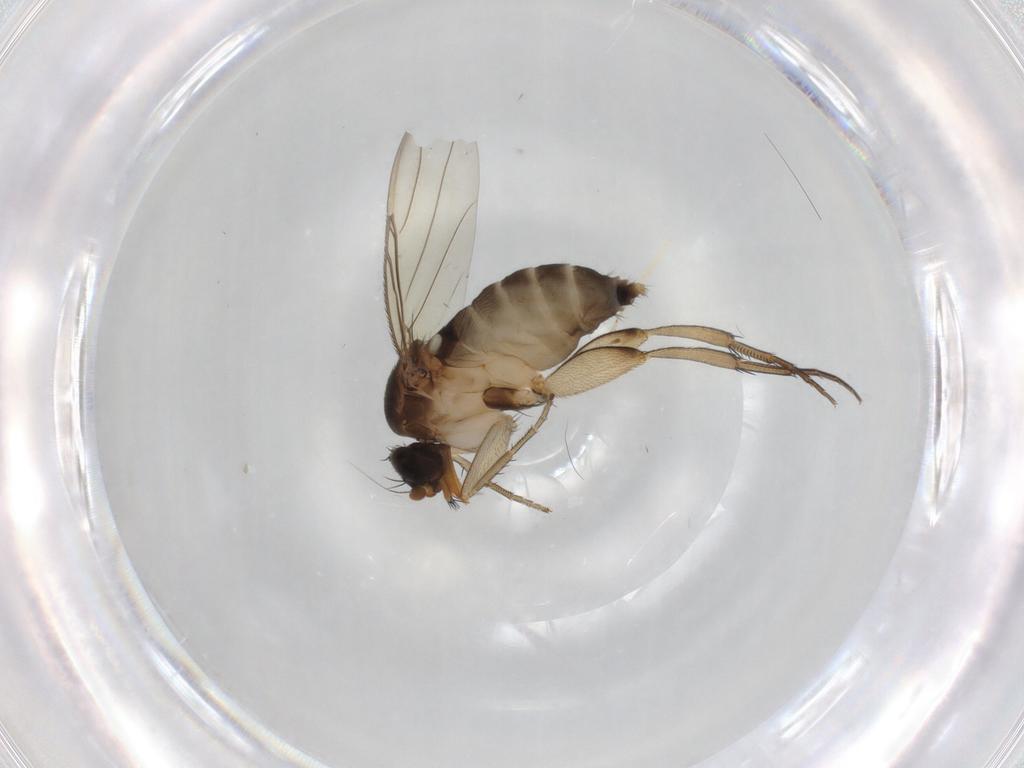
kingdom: Animalia
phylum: Arthropoda
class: Insecta
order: Diptera
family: Phoridae
